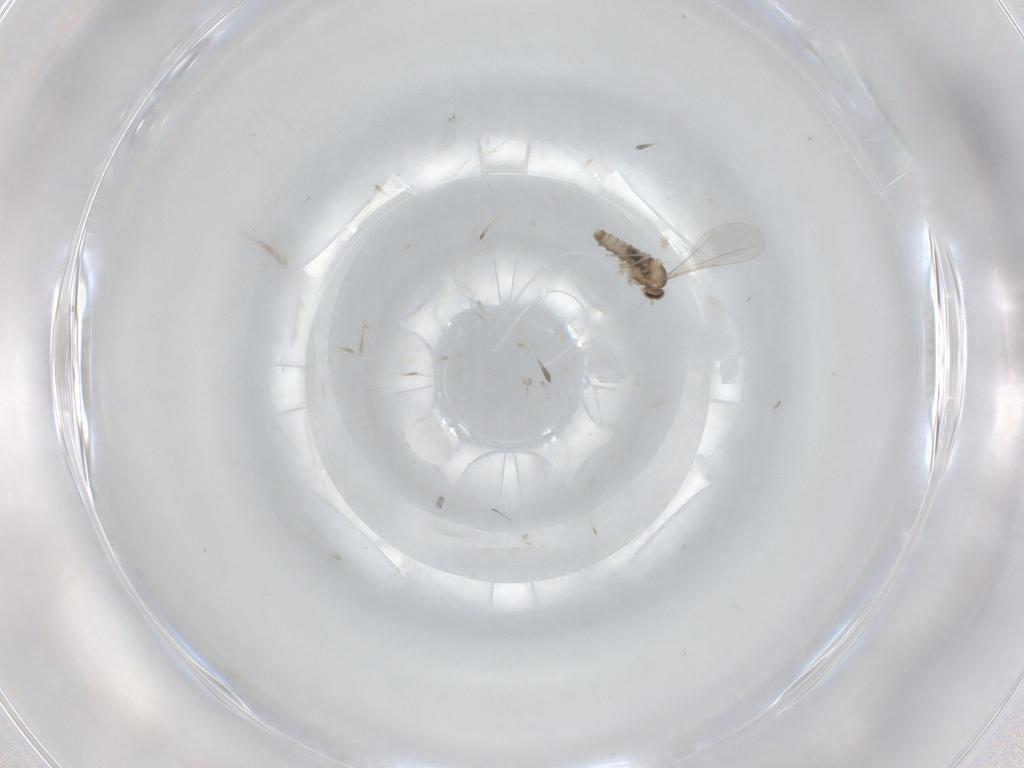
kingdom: Animalia
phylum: Arthropoda
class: Insecta
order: Diptera
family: Cecidomyiidae
